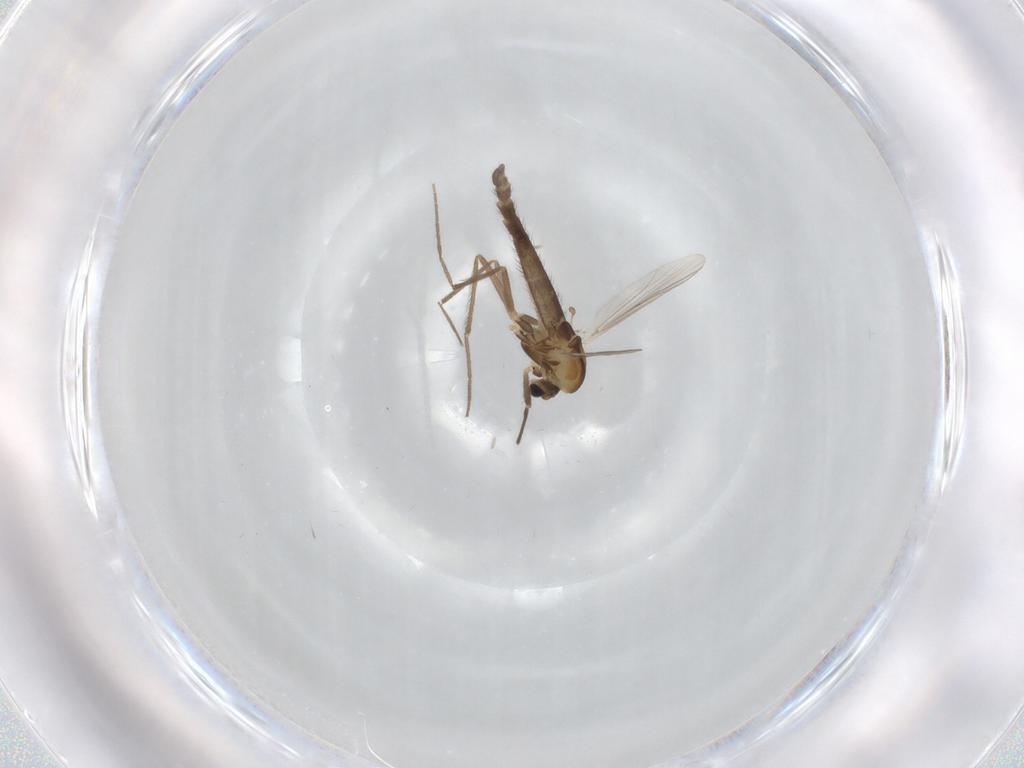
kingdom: Animalia
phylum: Arthropoda
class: Insecta
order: Diptera
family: Chironomidae
